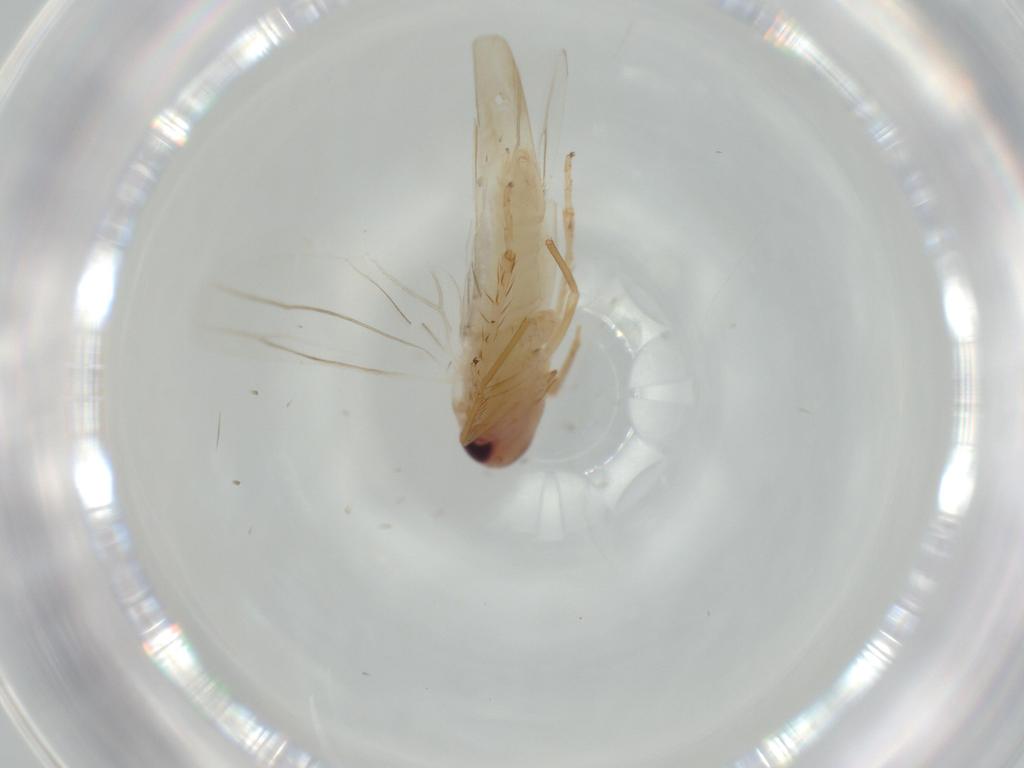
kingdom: Animalia
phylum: Arthropoda
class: Insecta
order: Hemiptera
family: Cicadellidae
